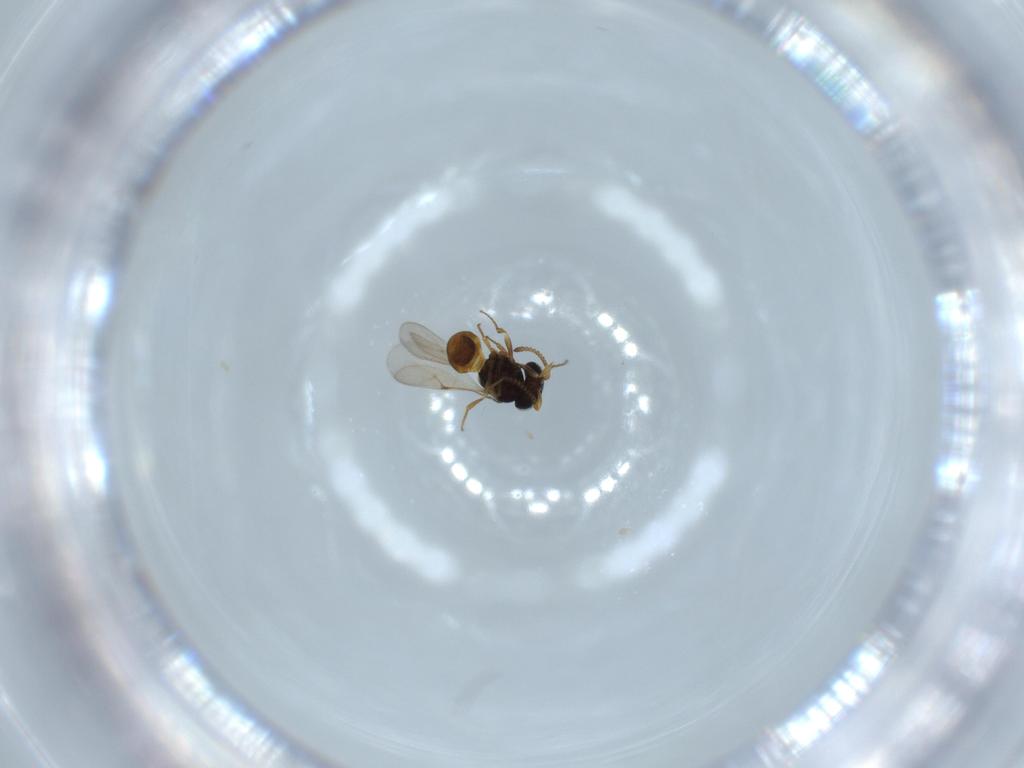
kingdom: Animalia
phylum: Arthropoda
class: Insecta
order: Hymenoptera
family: Scelionidae
